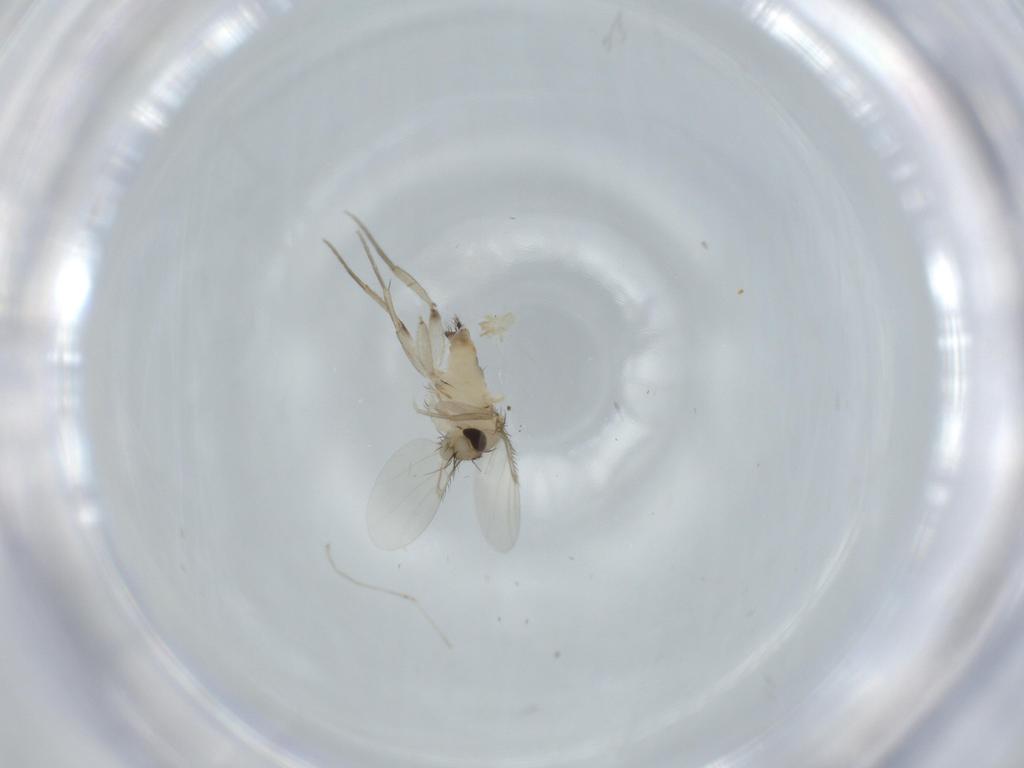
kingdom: Animalia
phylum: Arthropoda
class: Insecta
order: Diptera
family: Phoridae
